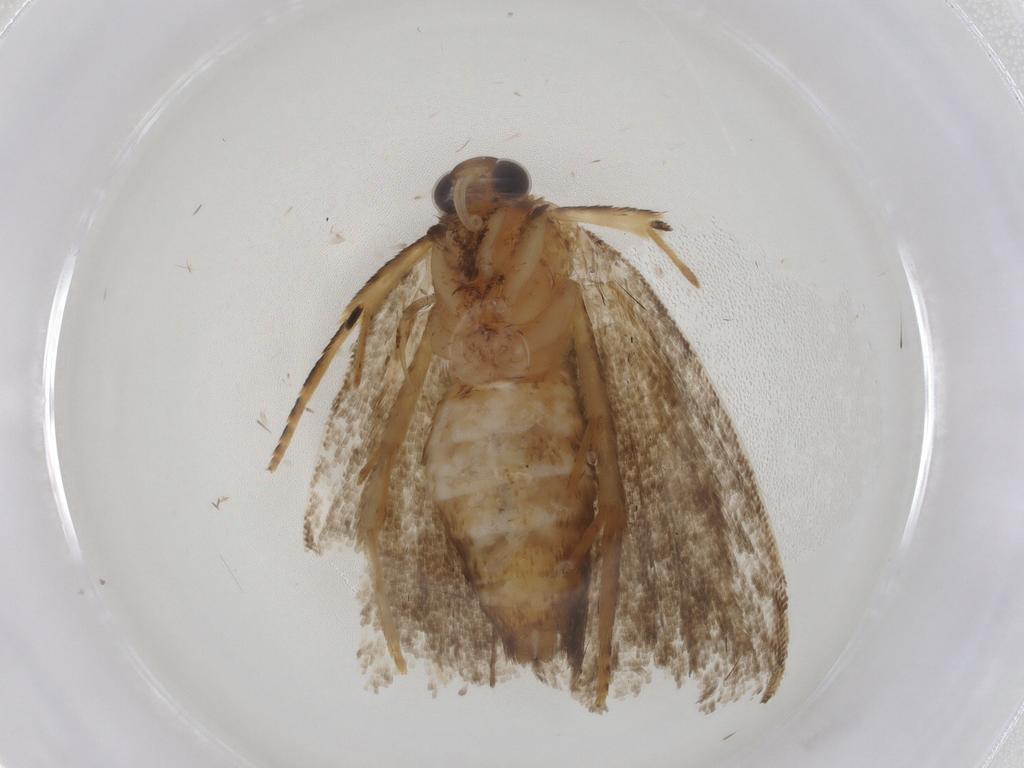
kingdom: Animalia
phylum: Arthropoda
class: Insecta
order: Lepidoptera
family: Tortricidae
